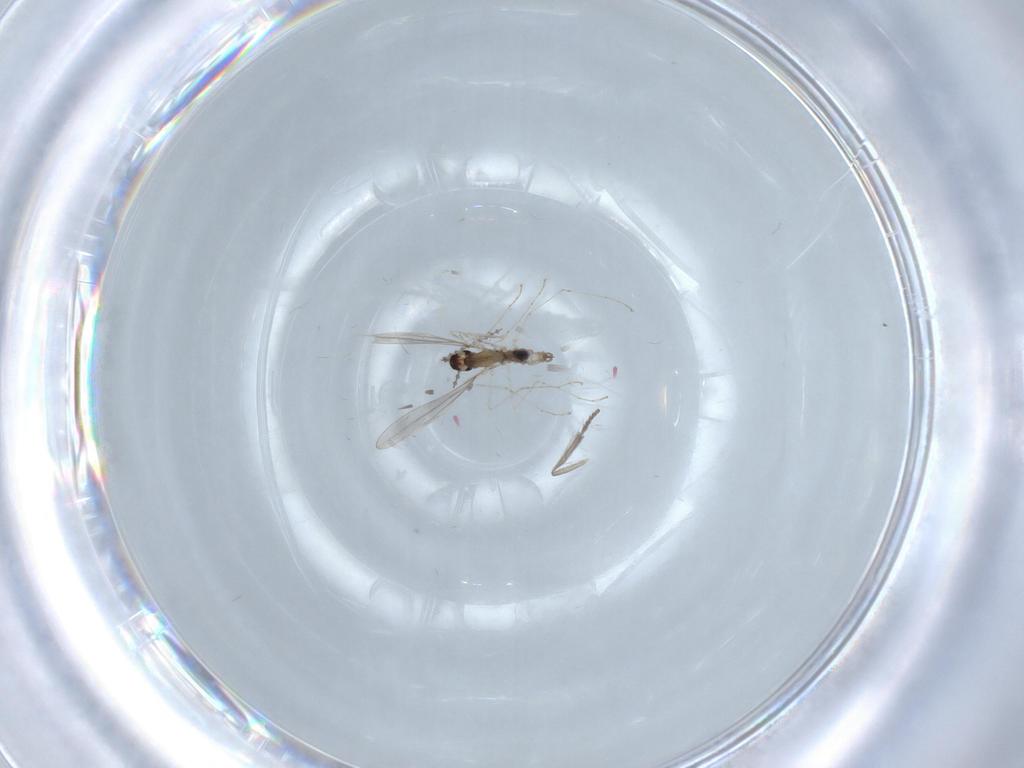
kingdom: Animalia
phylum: Arthropoda
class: Insecta
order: Diptera
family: Cecidomyiidae
